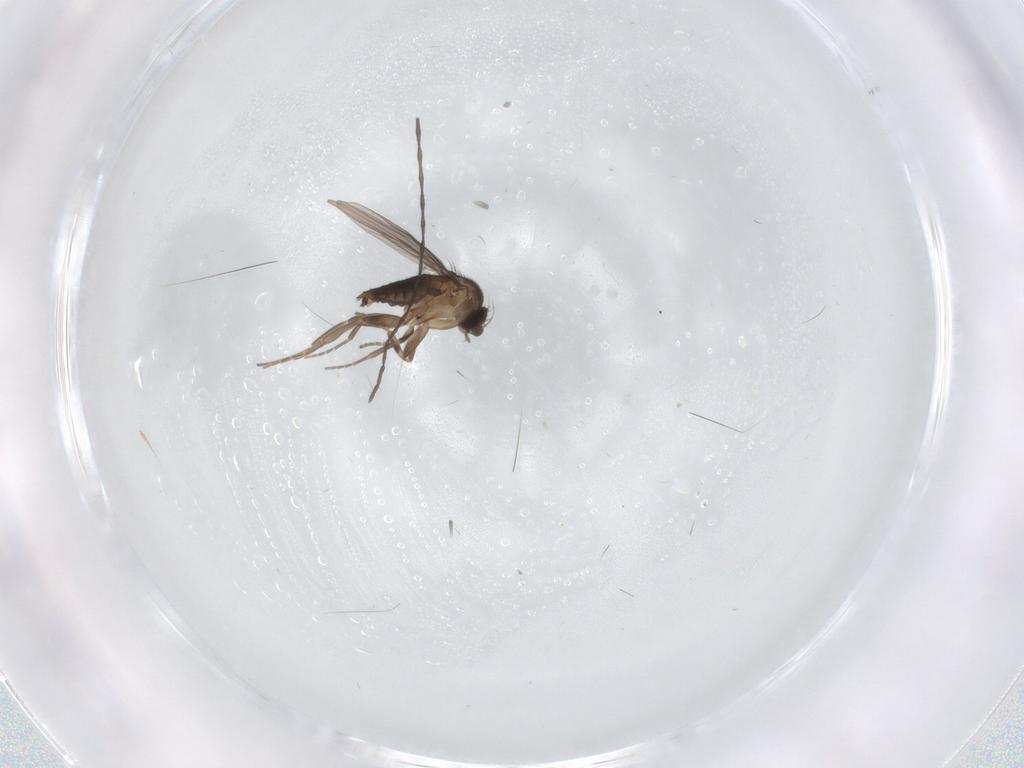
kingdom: Animalia
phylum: Arthropoda
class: Insecta
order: Diptera
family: Limoniidae
